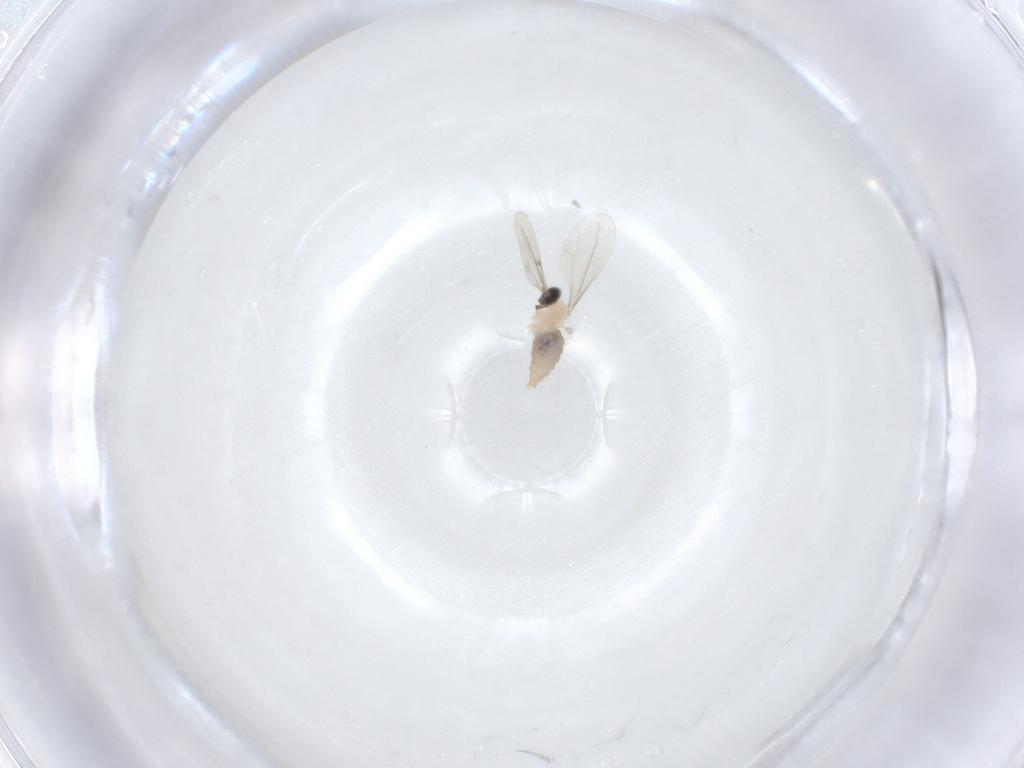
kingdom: Animalia
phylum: Arthropoda
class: Insecta
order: Diptera
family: Cecidomyiidae
